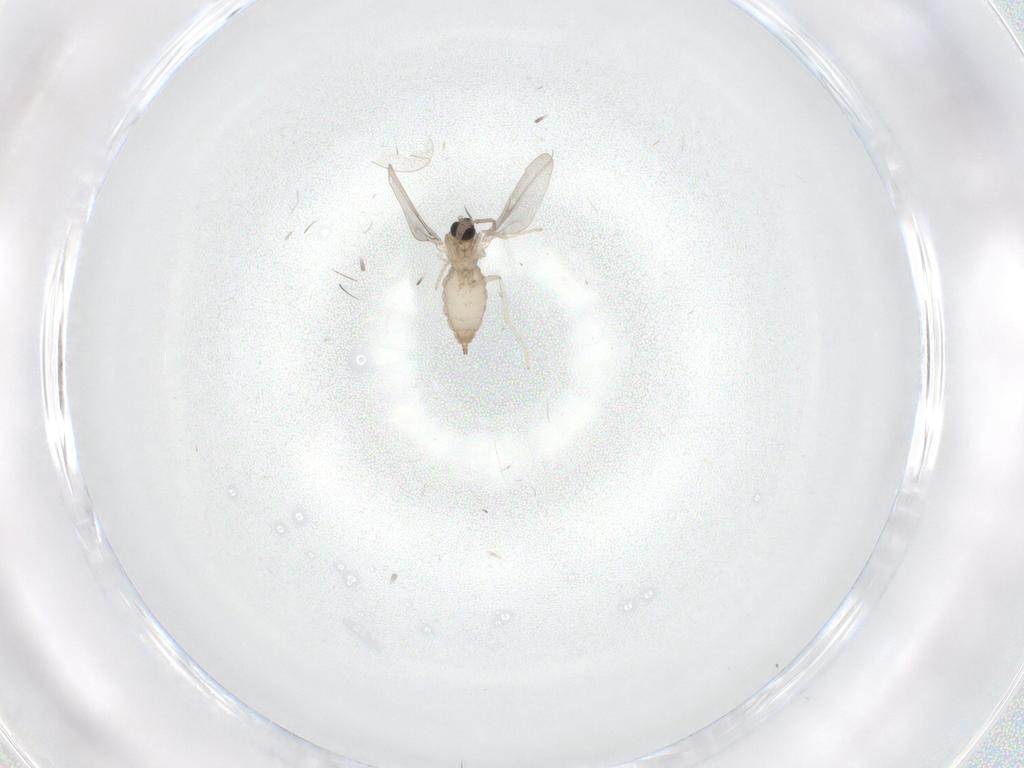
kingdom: Animalia
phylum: Arthropoda
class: Insecta
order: Diptera
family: Cecidomyiidae
